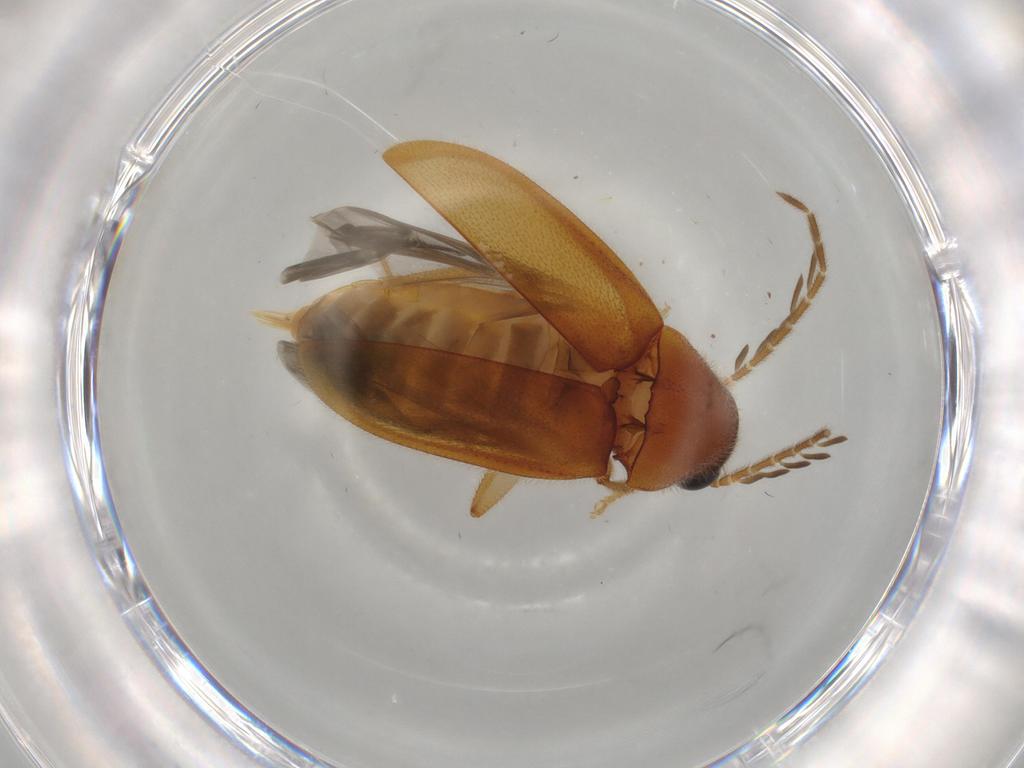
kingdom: Animalia
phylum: Arthropoda
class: Insecta
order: Coleoptera
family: Ptilodactylidae
